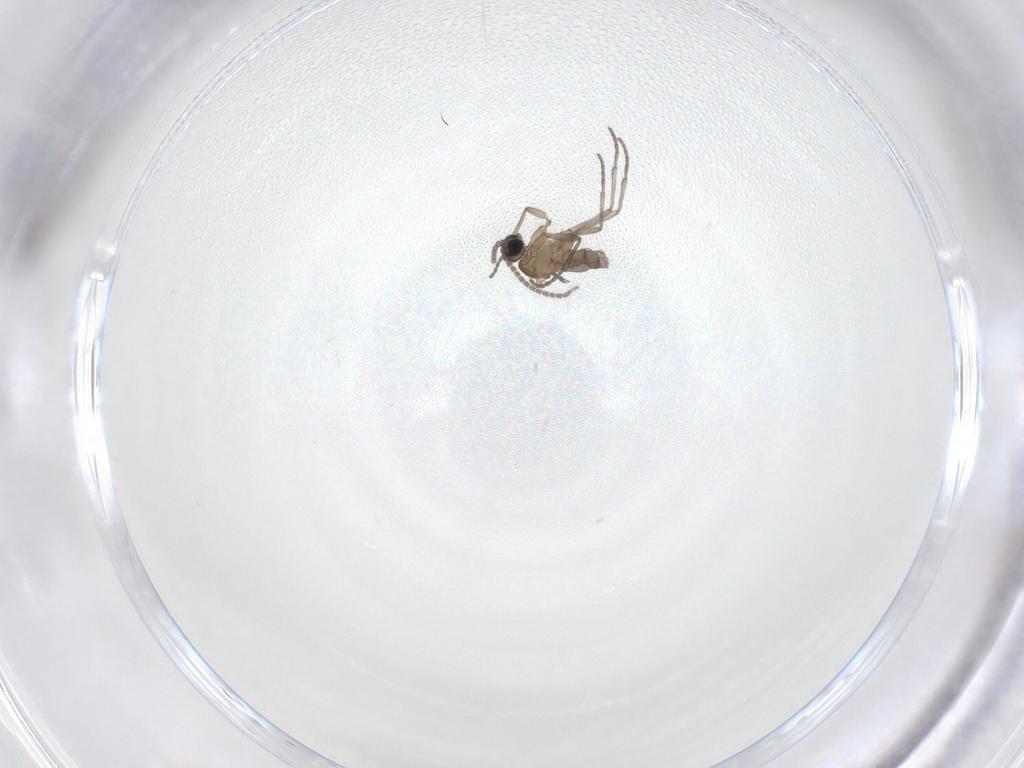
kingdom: Animalia
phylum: Arthropoda
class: Insecta
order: Diptera
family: Sciaridae
